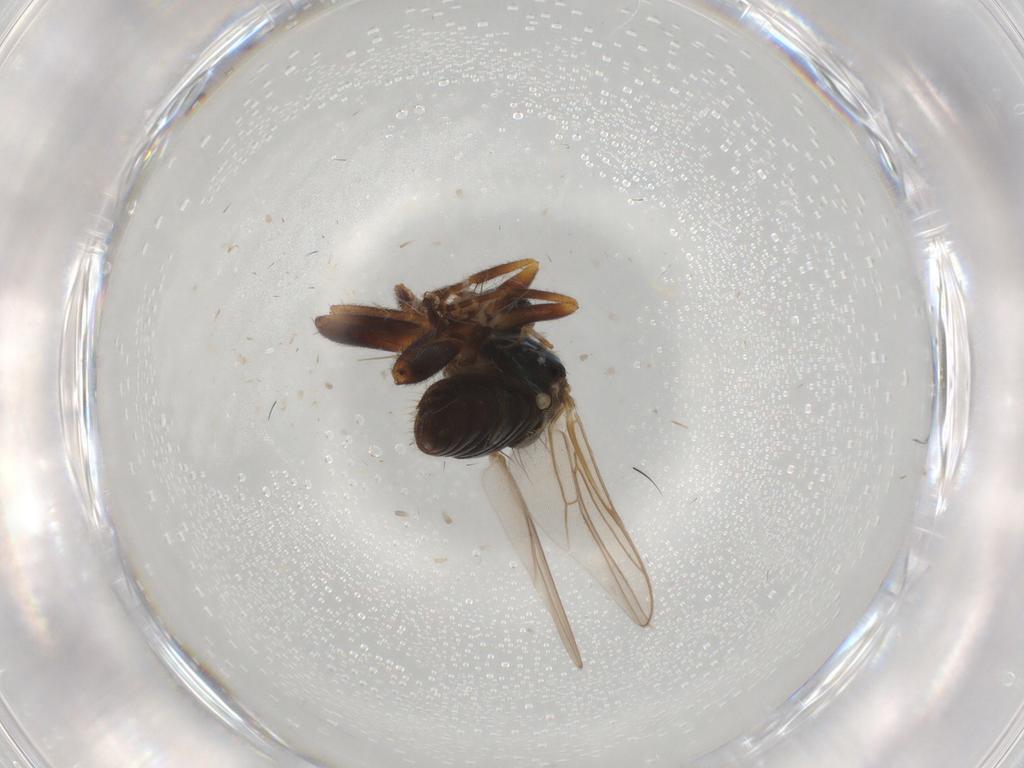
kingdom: Animalia
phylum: Arthropoda
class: Insecta
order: Diptera
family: Hybotidae
